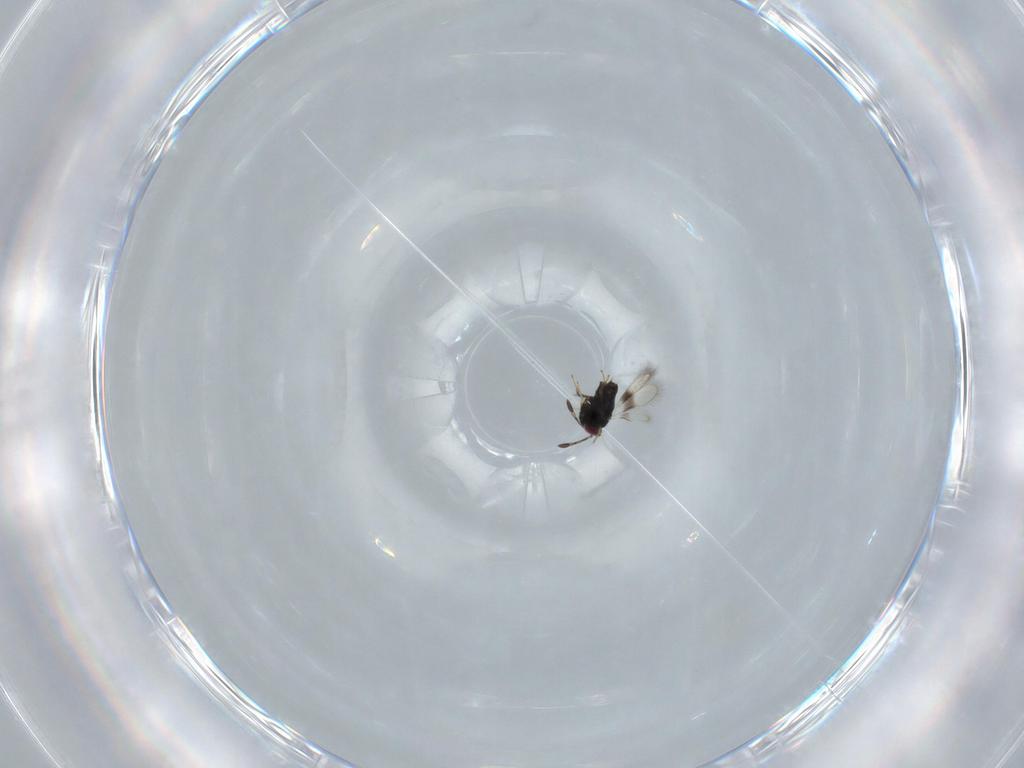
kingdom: Animalia
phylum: Arthropoda
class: Insecta
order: Hymenoptera
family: Azotidae
